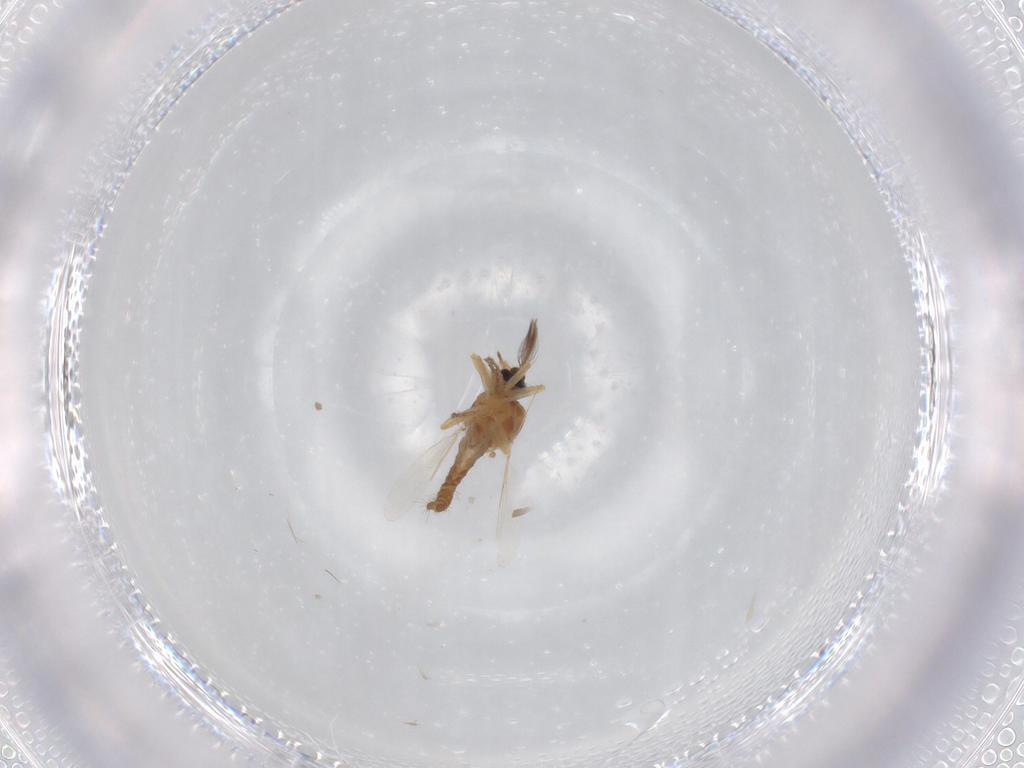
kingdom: Animalia
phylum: Arthropoda
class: Insecta
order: Diptera
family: Ceratopogonidae
